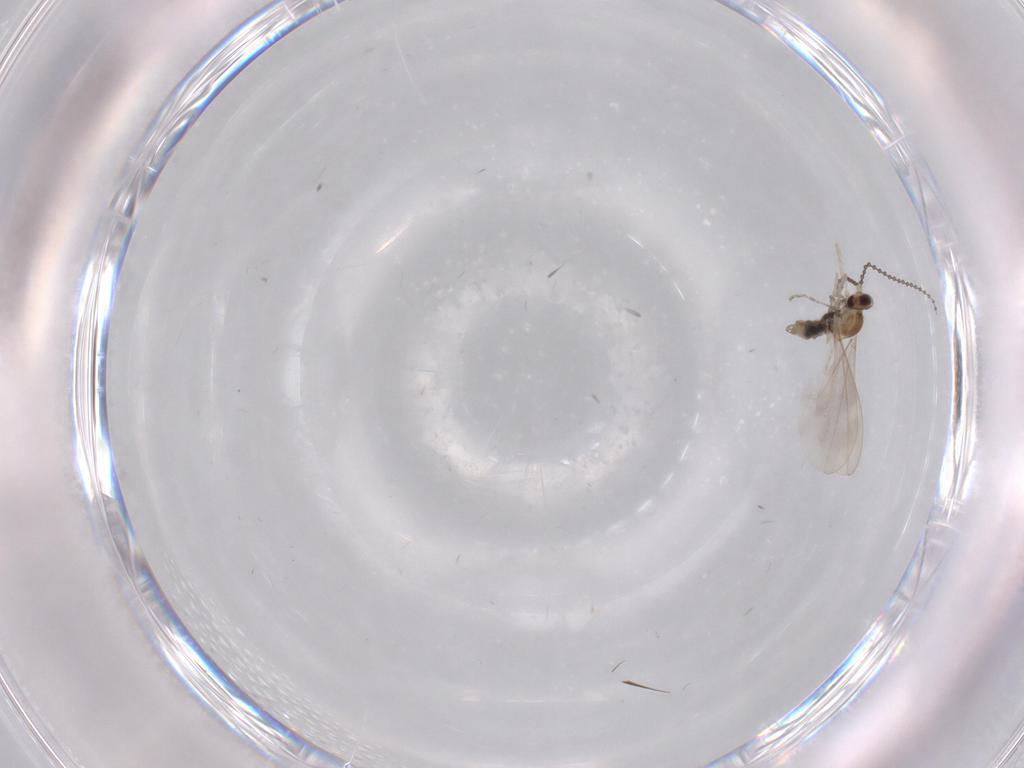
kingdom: Animalia
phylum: Arthropoda
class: Insecta
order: Diptera
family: Cecidomyiidae
